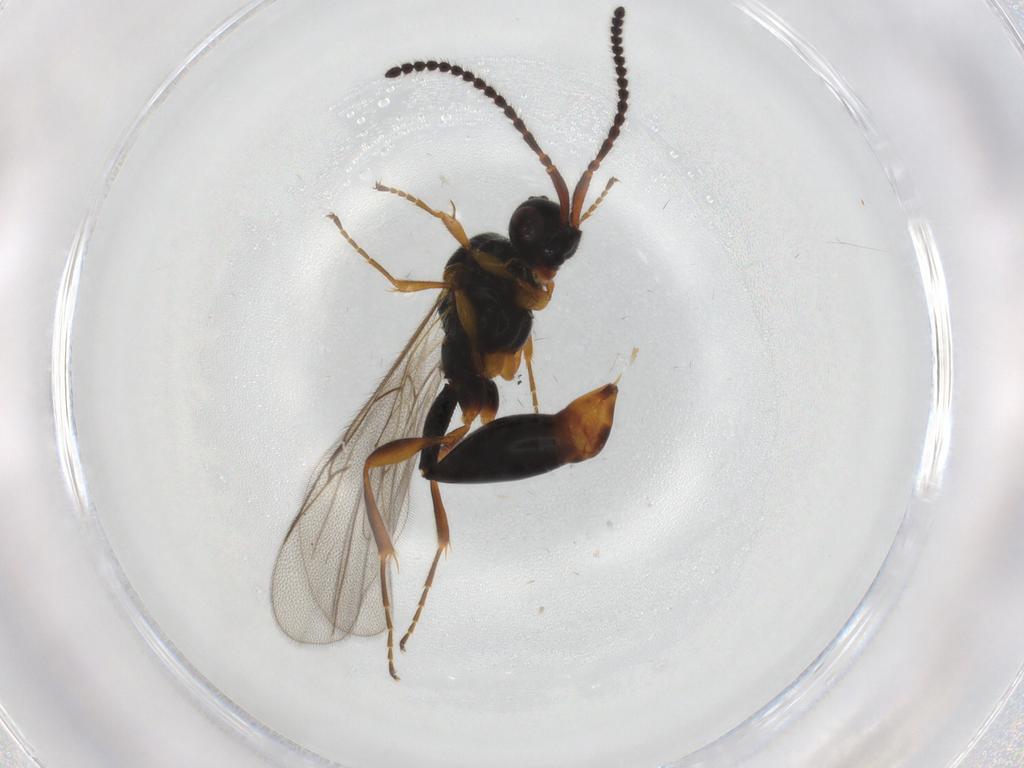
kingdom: Animalia
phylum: Arthropoda
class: Insecta
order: Hymenoptera
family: Diapriidae
